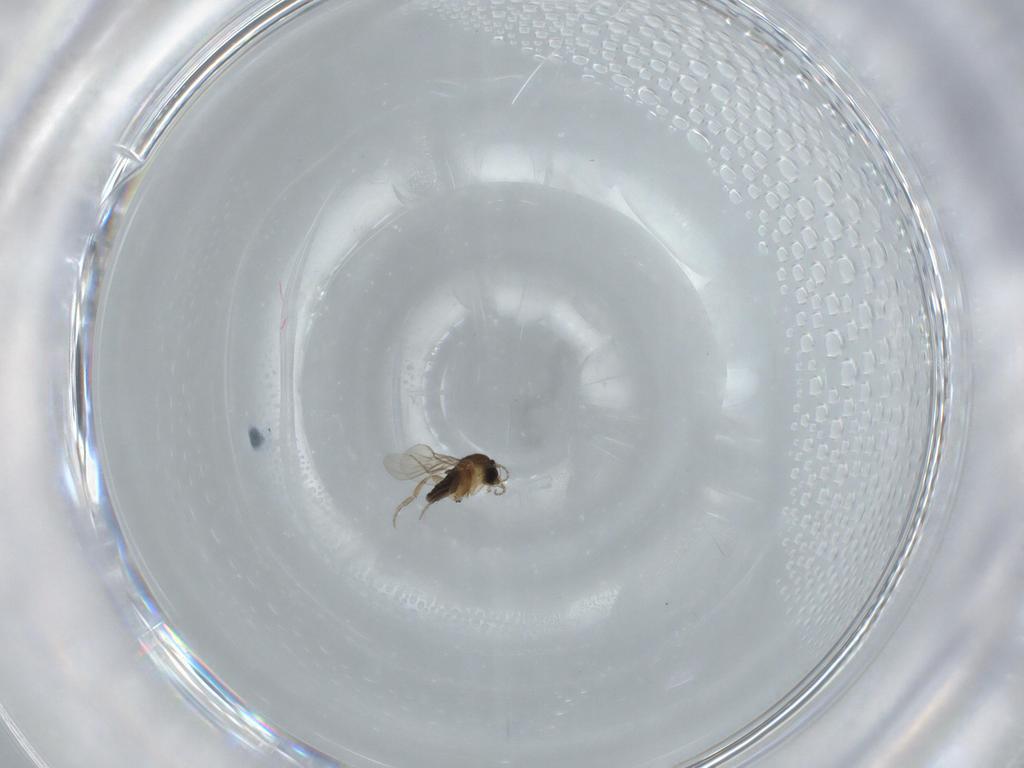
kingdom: Animalia
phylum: Arthropoda
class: Insecta
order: Diptera
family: Phoridae
